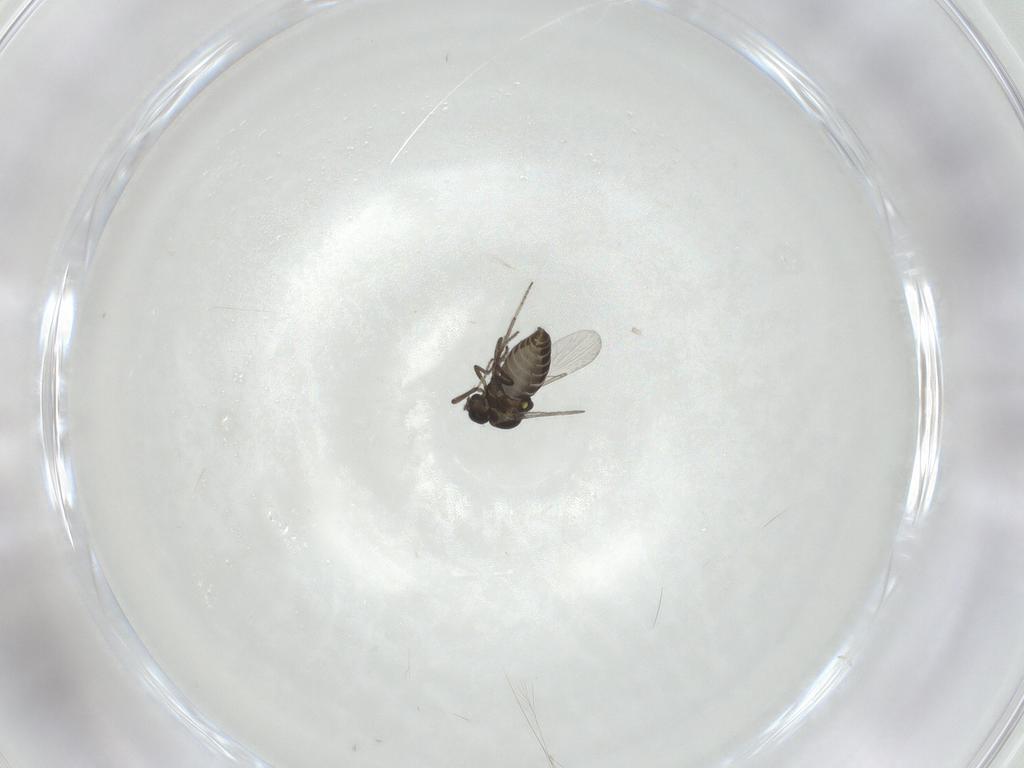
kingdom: Animalia
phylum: Arthropoda
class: Insecta
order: Diptera
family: Ceratopogonidae
